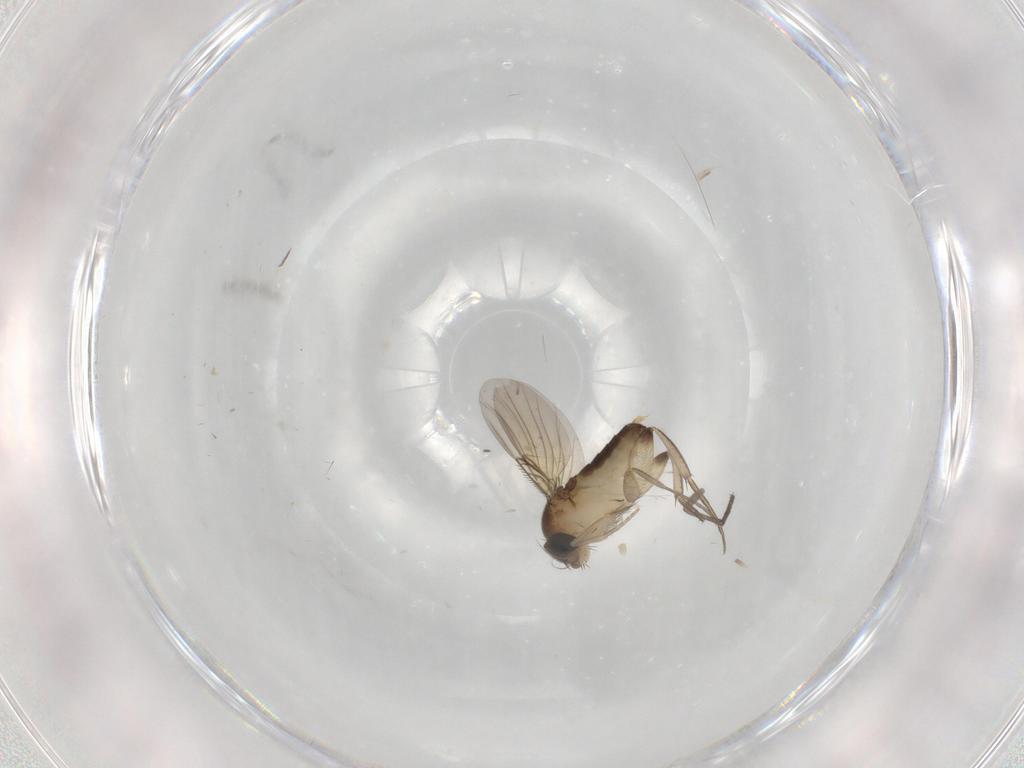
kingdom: Animalia
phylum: Arthropoda
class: Insecta
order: Diptera
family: Phoridae
